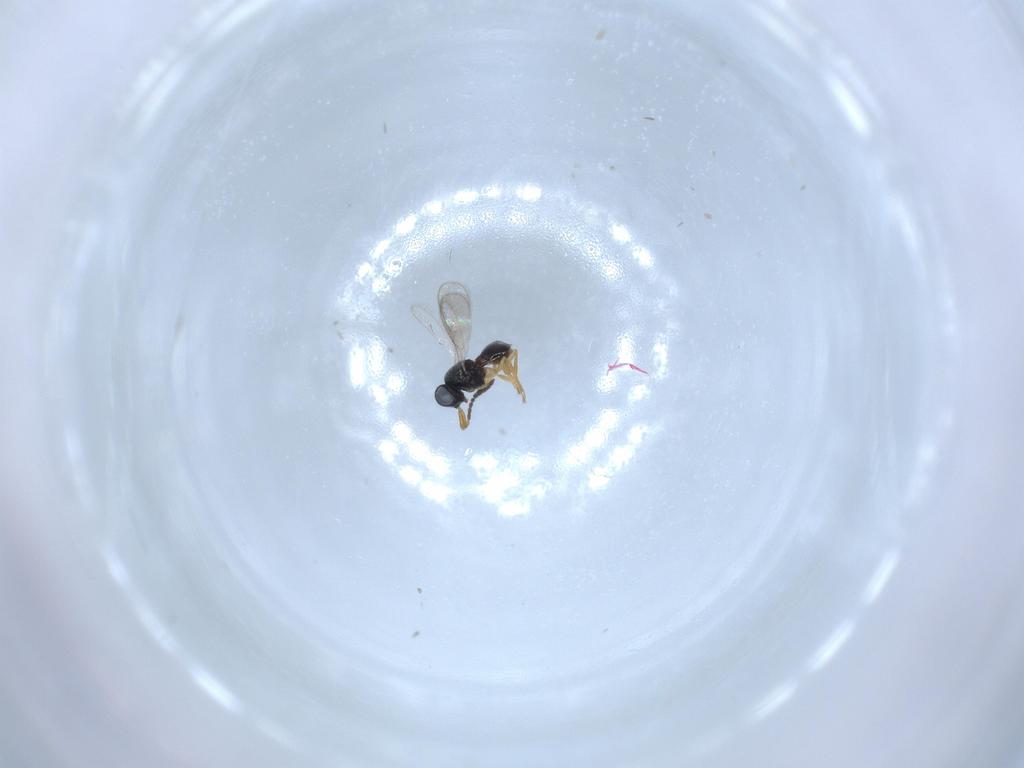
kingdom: Animalia
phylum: Arthropoda
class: Insecta
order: Hymenoptera
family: Scelionidae
